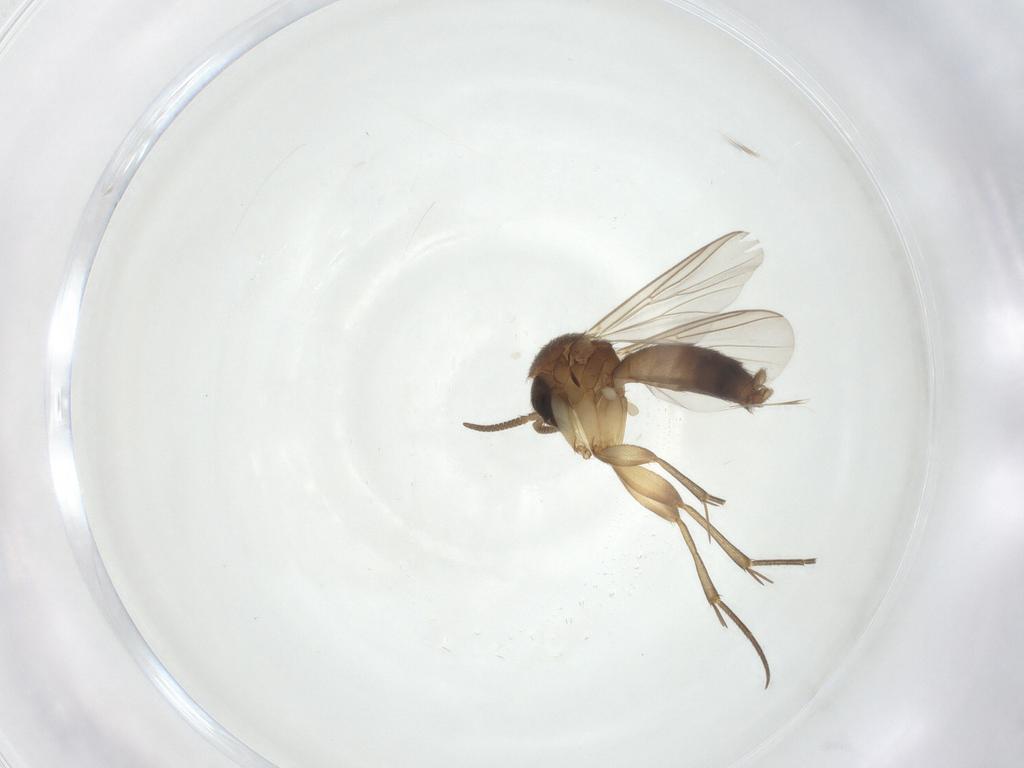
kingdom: Animalia
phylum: Arthropoda
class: Insecta
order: Diptera
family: Mycetophilidae
